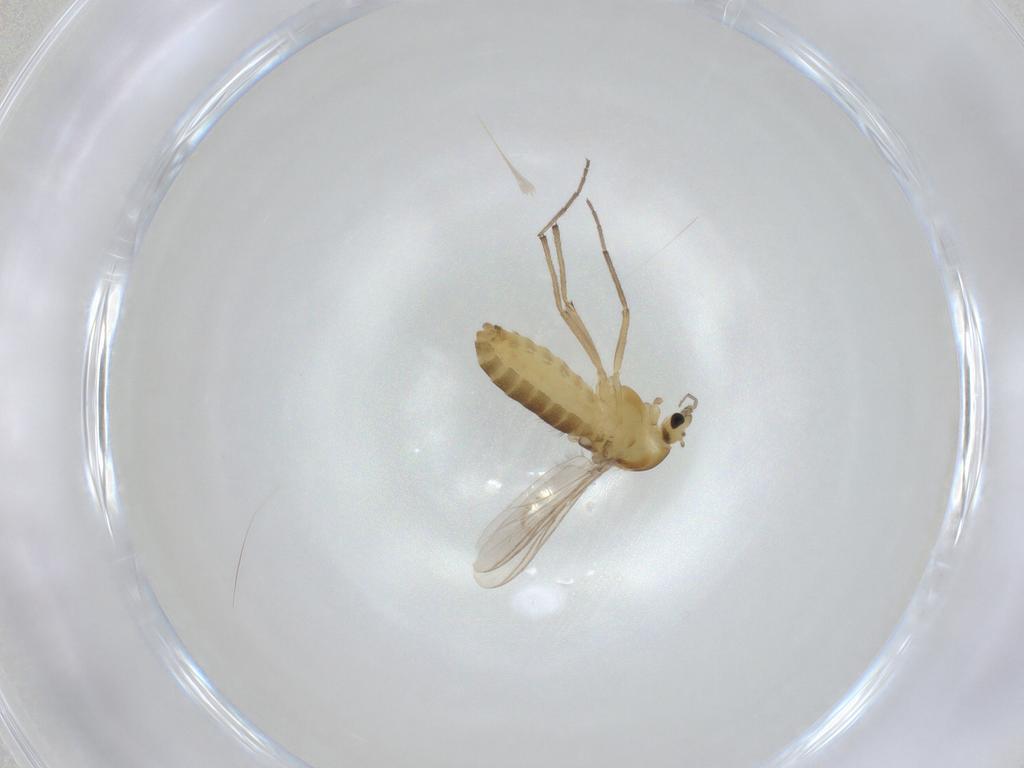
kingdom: Animalia
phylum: Arthropoda
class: Insecta
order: Diptera
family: Chironomidae
